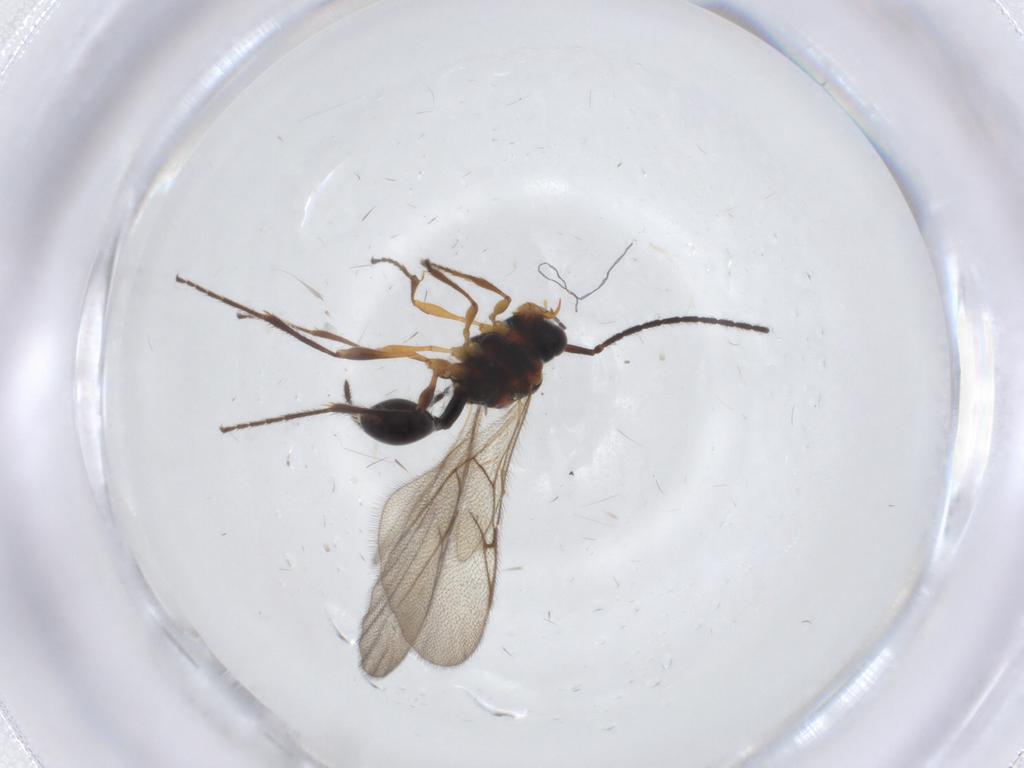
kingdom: Animalia
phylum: Arthropoda
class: Insecta
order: Hymenoptera
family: Diapriidae
